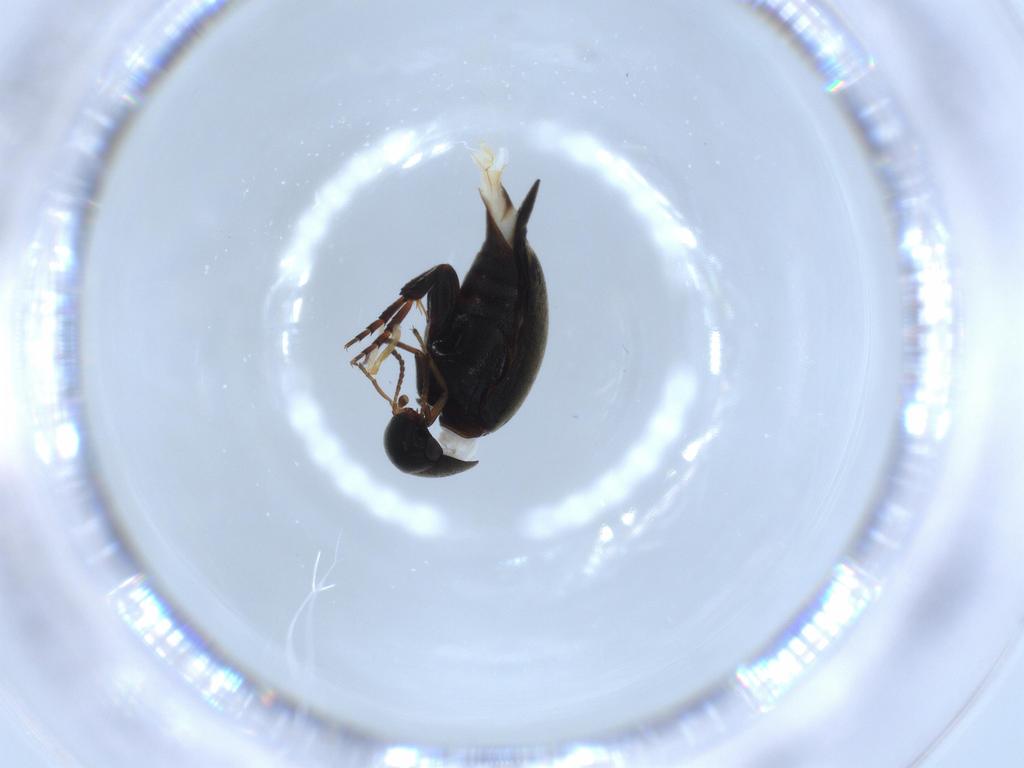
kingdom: Animalia
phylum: Arthropoda
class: Insecta
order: Coleoptera
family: Mordellidae
